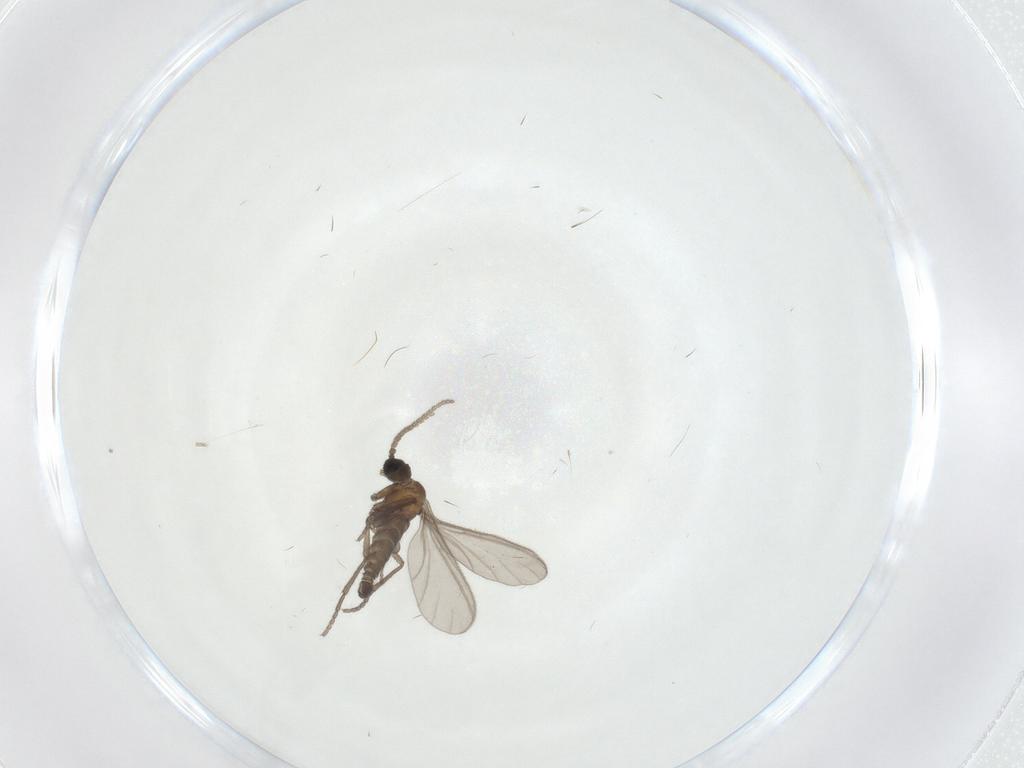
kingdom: Animalia
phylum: Arthropoda
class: Insecta
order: Diptera
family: Sciaridae
